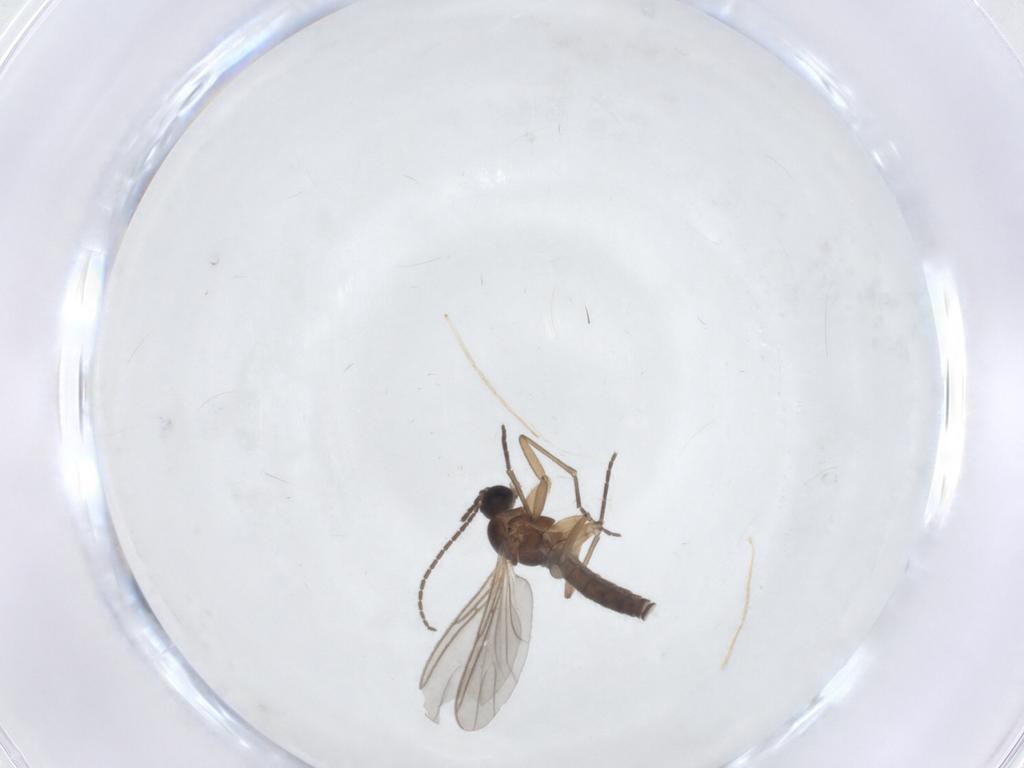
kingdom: Animalia
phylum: Arthropoda
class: Insecta
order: Diptera
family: Sciaridae
